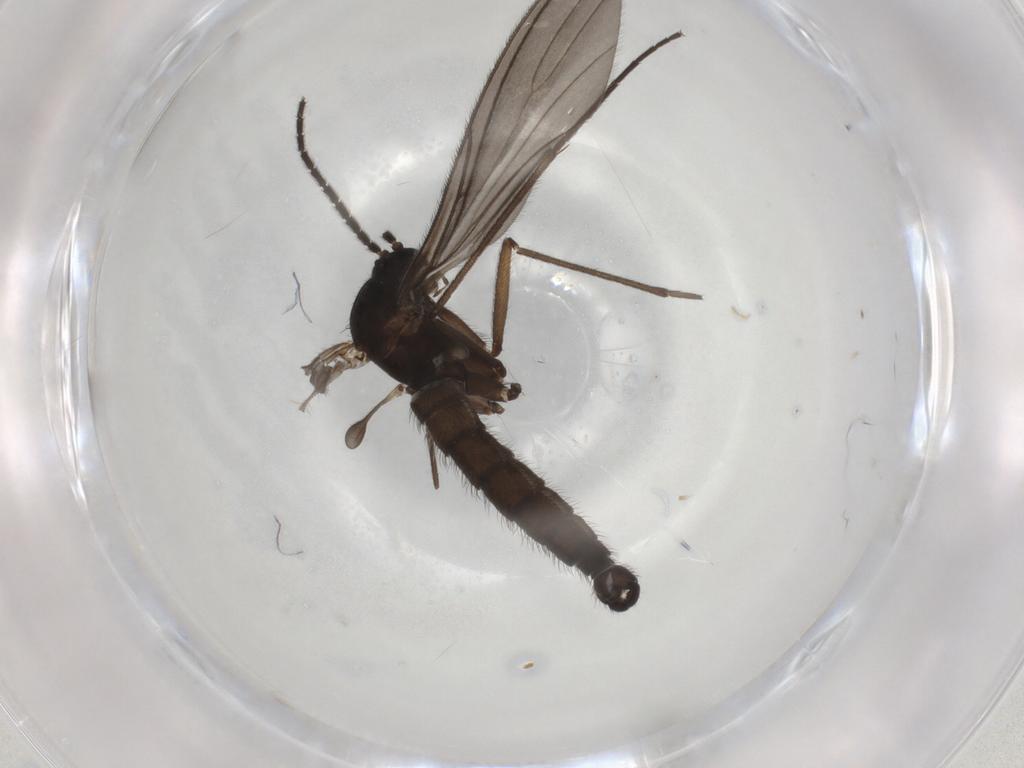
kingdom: Animalia
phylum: Arthropoda
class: Insecta
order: Diptera
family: Sciaridae
